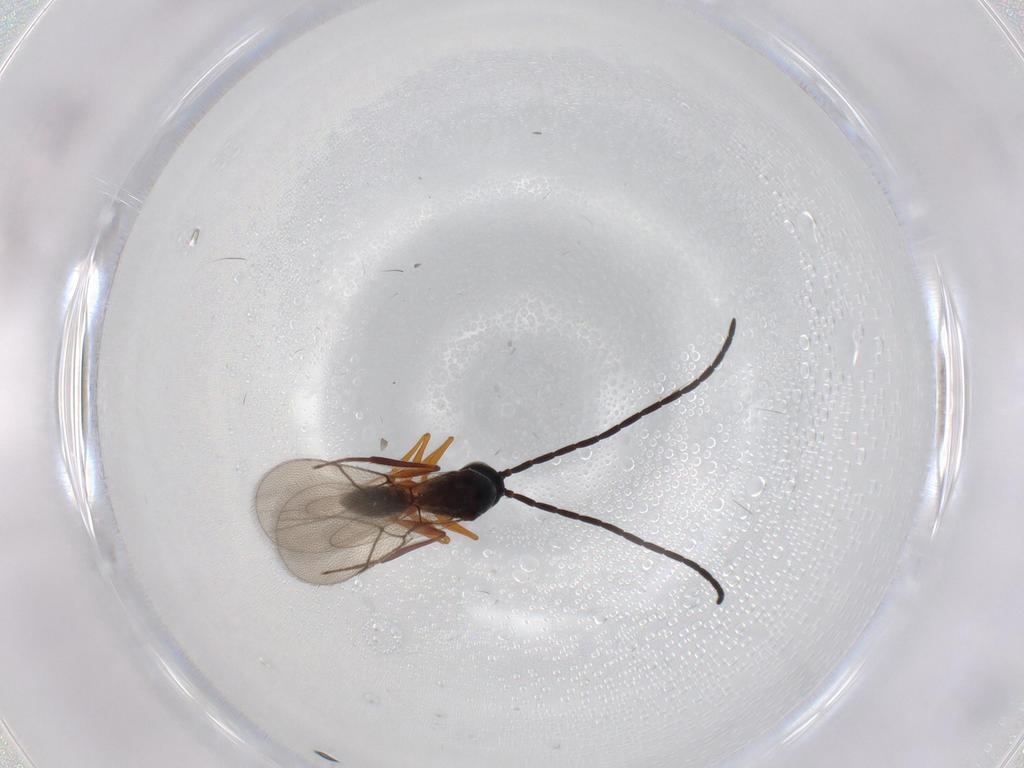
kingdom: Animalia
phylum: Arthropoda
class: Insecta
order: Hymenoptera
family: Figitidae
